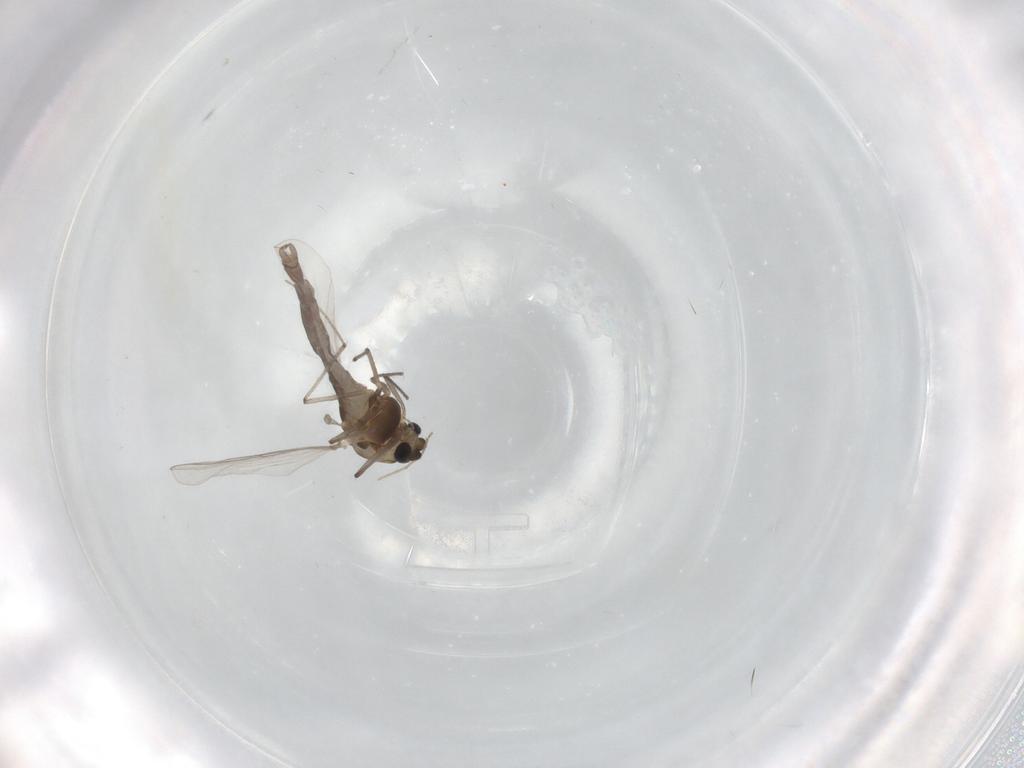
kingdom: Animalia
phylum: Arthropoda
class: Insecta
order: Diptera
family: Chironomidae
